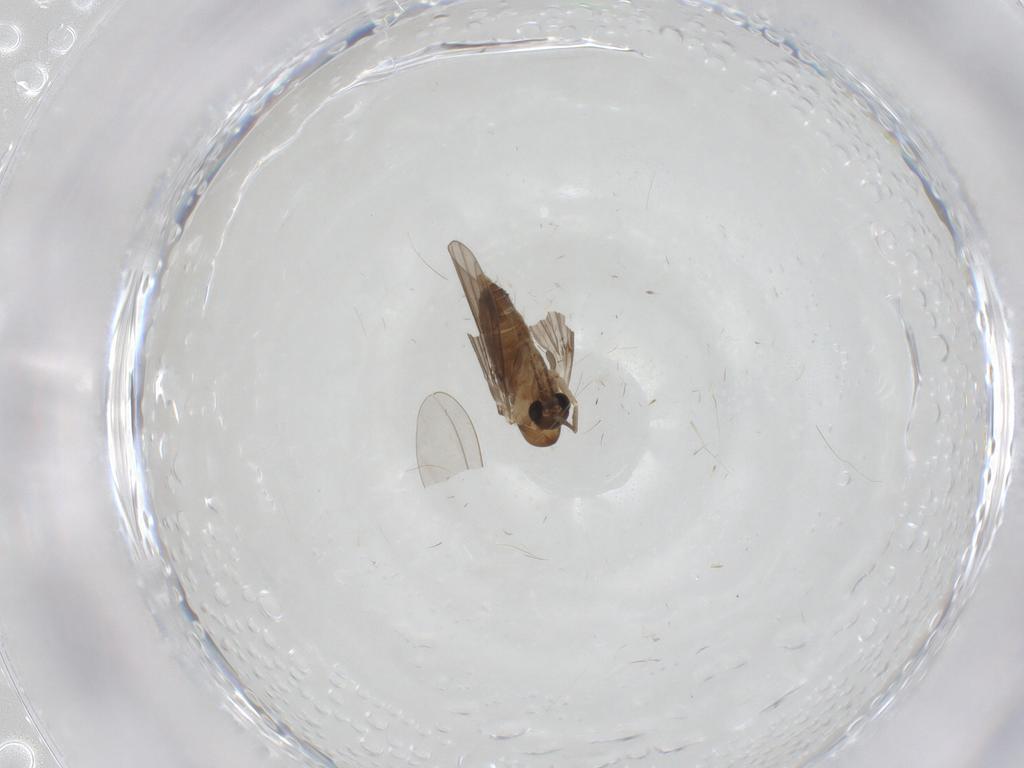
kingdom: Animalia
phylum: Arthropoda
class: Insecta
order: Diptera
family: Cecidomyiidae
